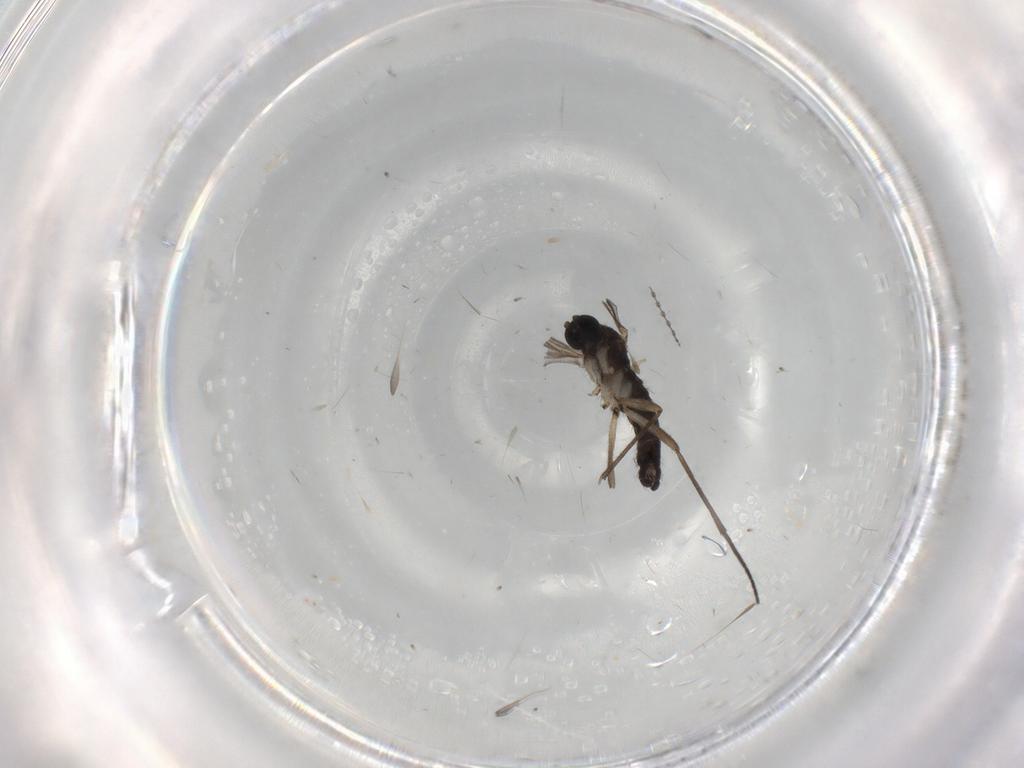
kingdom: Animalia
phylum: Arthropoda
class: Insecta
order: Diptera
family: Sciaridae
